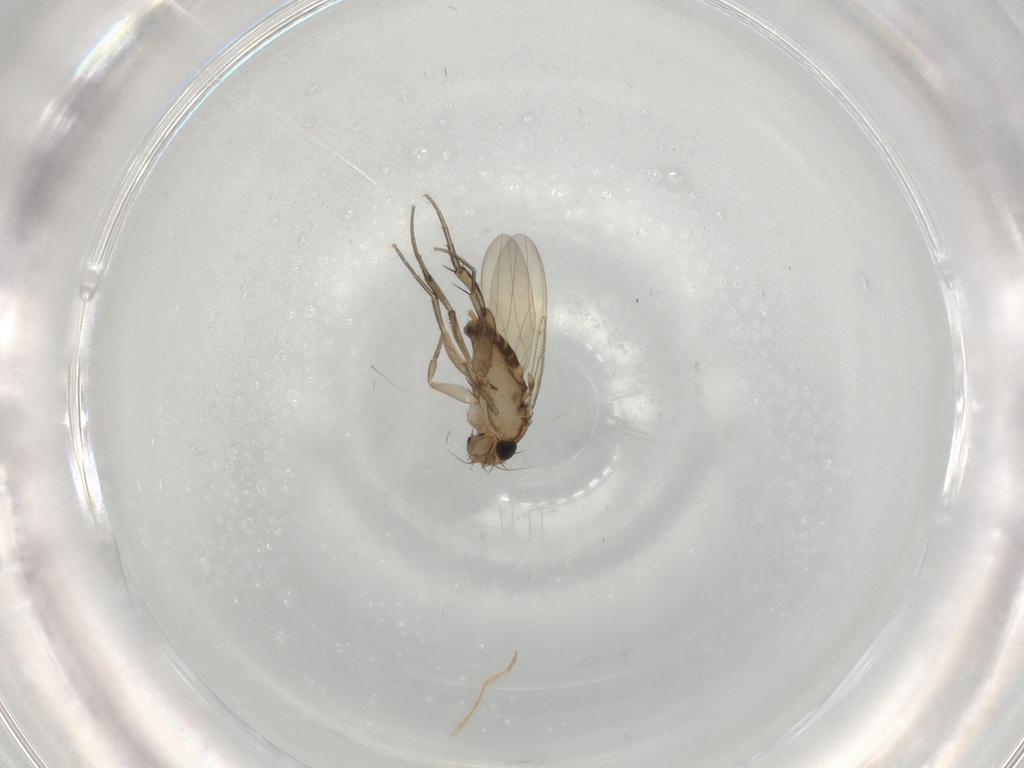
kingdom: Animalia
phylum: Arthropoda
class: Insecta
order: Diptera
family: Phoridae
